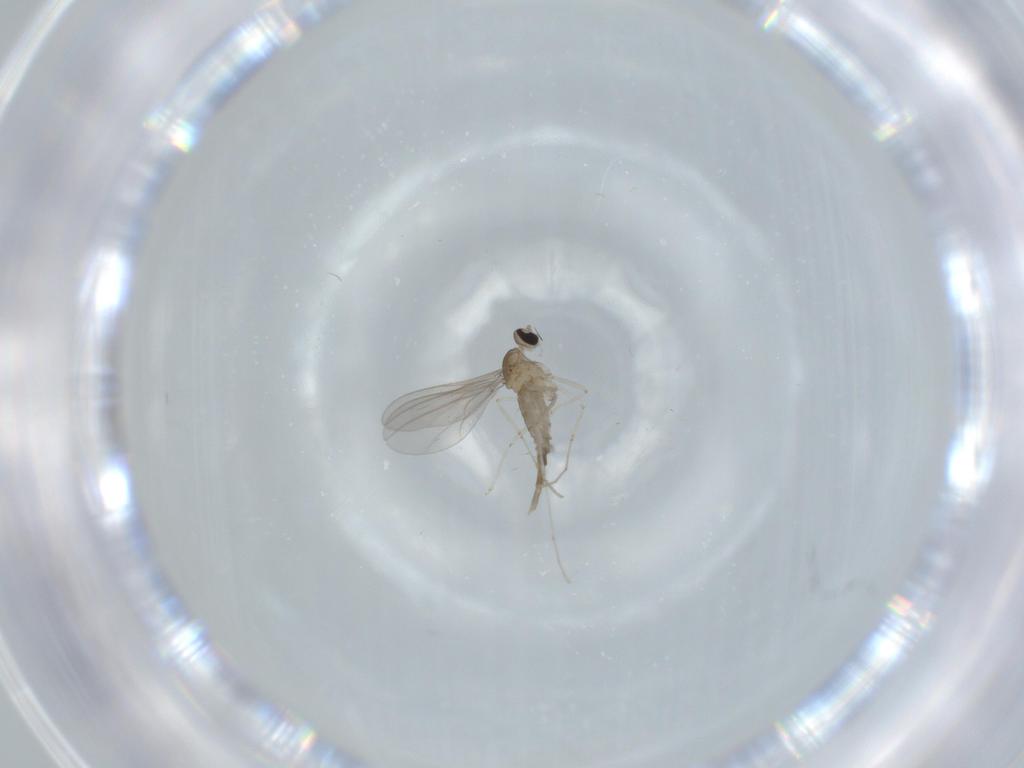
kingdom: Animalia
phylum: Arthropoda
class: Insecta
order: Diptera
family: Cecidomyiidae
